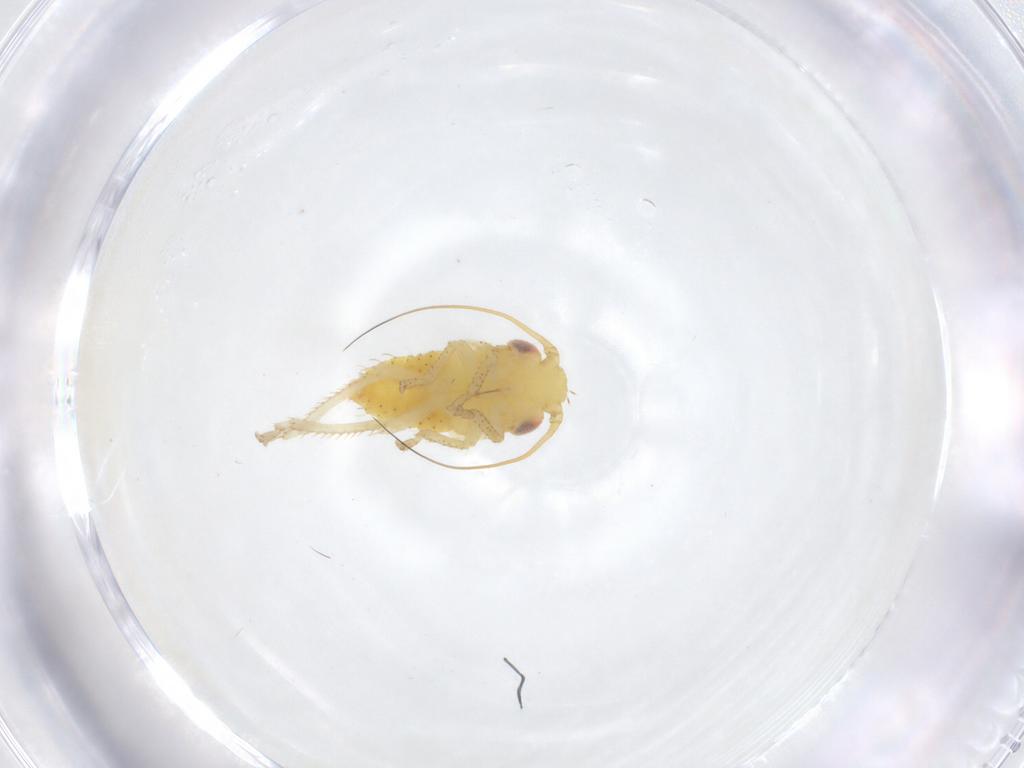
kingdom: Animalia
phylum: Arthropoda
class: Insecta
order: Hemiptera
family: Cicadellidae
